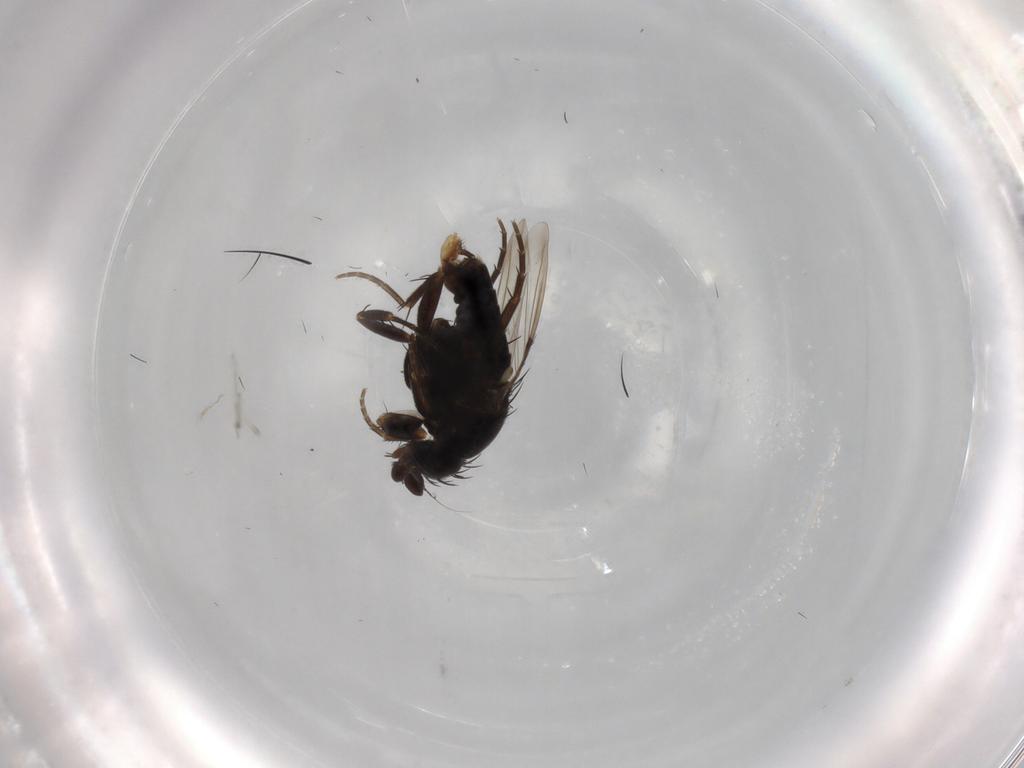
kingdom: Animalia
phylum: Arthropoda
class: Insecta
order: Diptera
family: Phoridae
